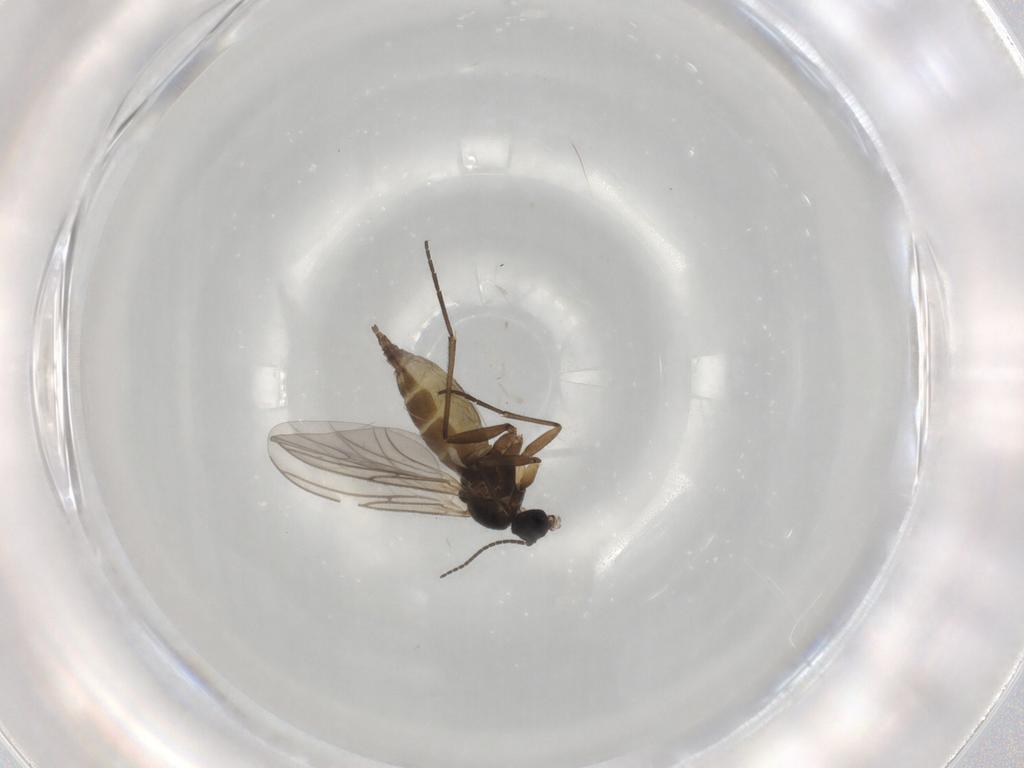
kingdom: Animalia
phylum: Arthropoda
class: Insecta
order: Diptera
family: Sciaridae
